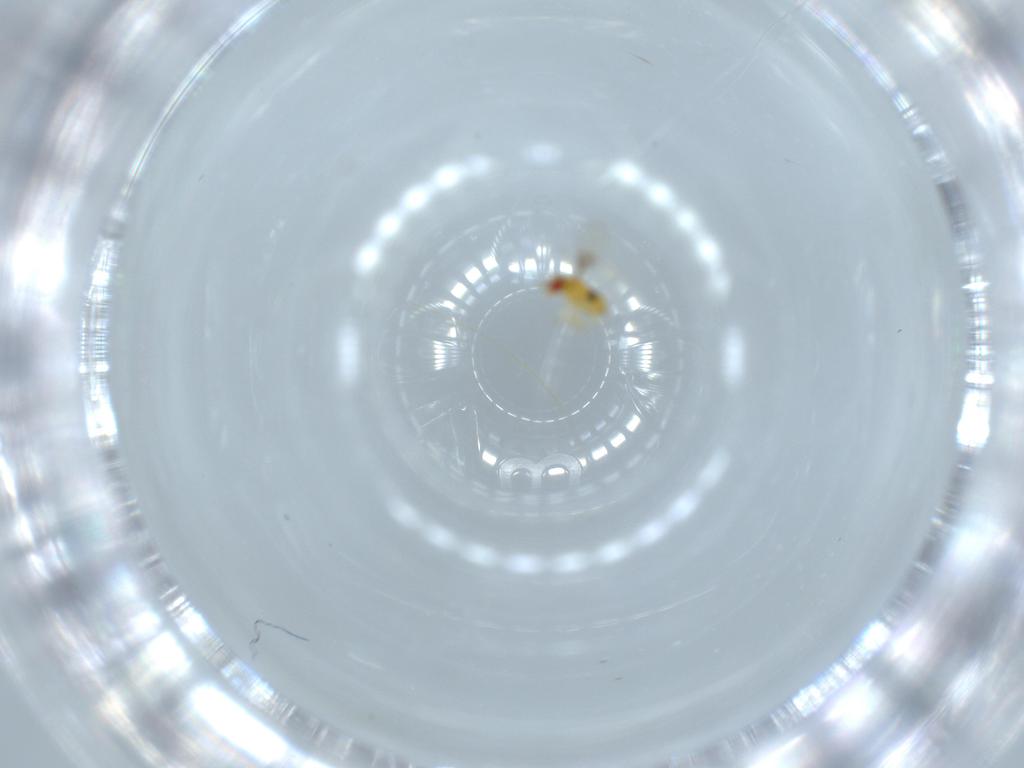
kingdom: Animalia
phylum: Arthropoda
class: Insecta
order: Hymenoptera
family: Trichogrammatidae
